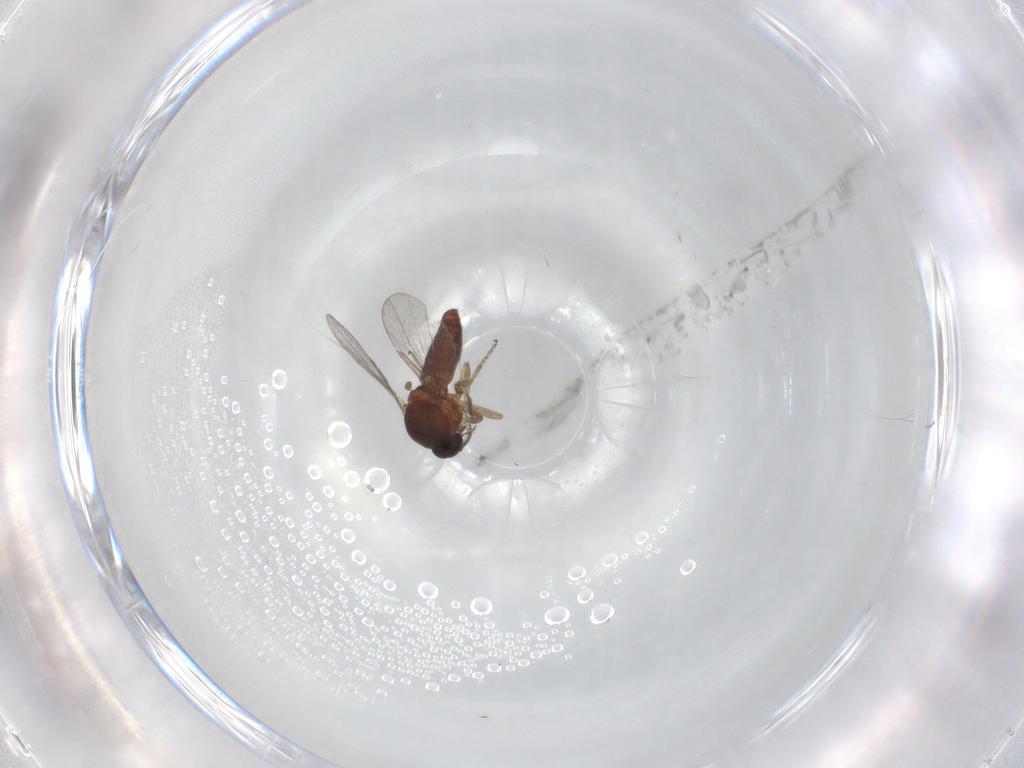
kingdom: Animalia
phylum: Arthropoda
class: Insecta
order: Diptera
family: Ceratopogonidae
